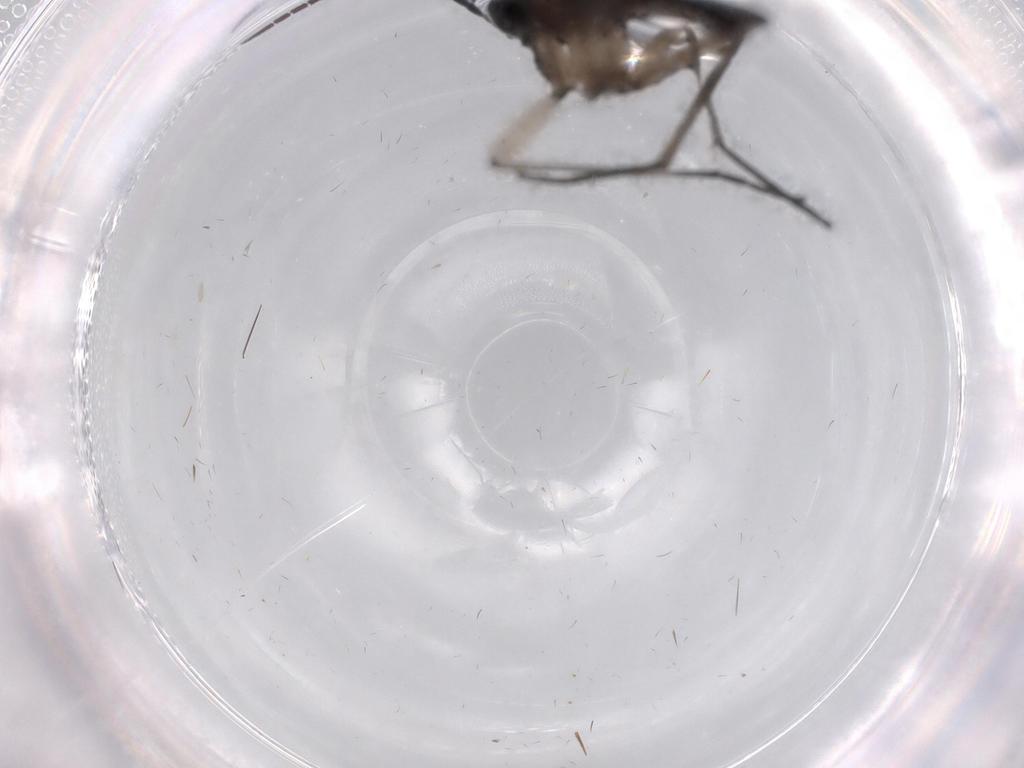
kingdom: Animalia
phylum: Arthropoda
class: Insecta
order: Diptera
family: Sciaridae
